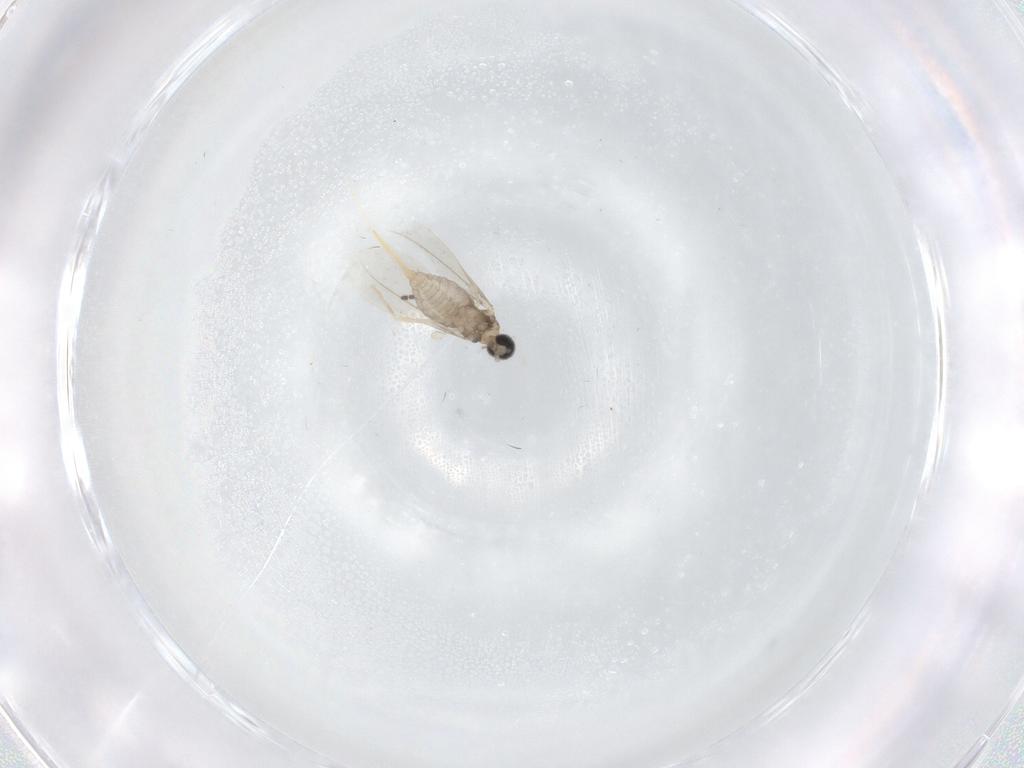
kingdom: Animalia
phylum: Arthropoda
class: Insecta
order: Diptera
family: Cecidomyiidae
